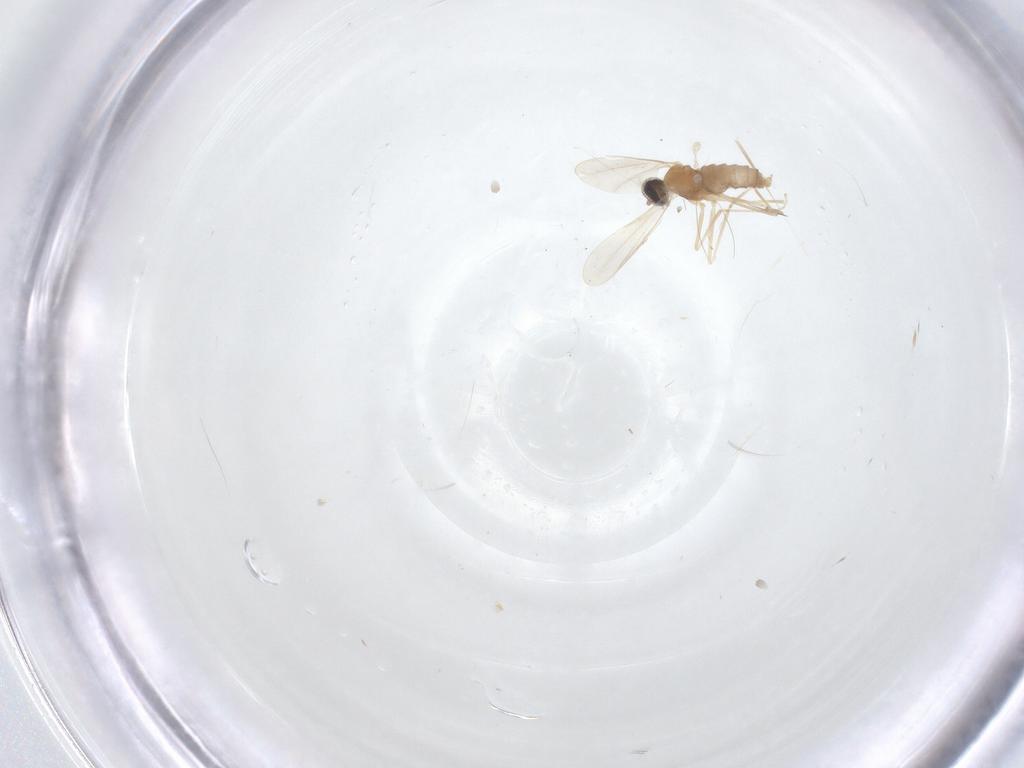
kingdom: Animalia
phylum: Arthropoda
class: Insecta
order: Diptera
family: Cecidomyiidae
